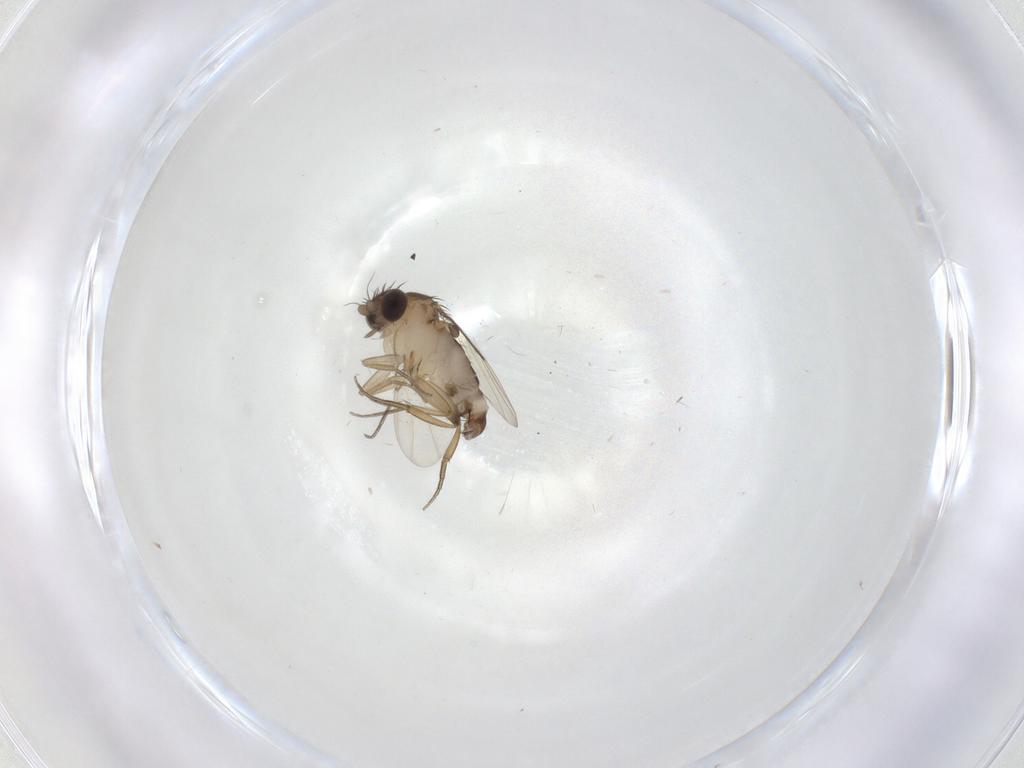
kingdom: Animalia
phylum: Arthropoda
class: Insecta
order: Diptera
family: Phoridae
